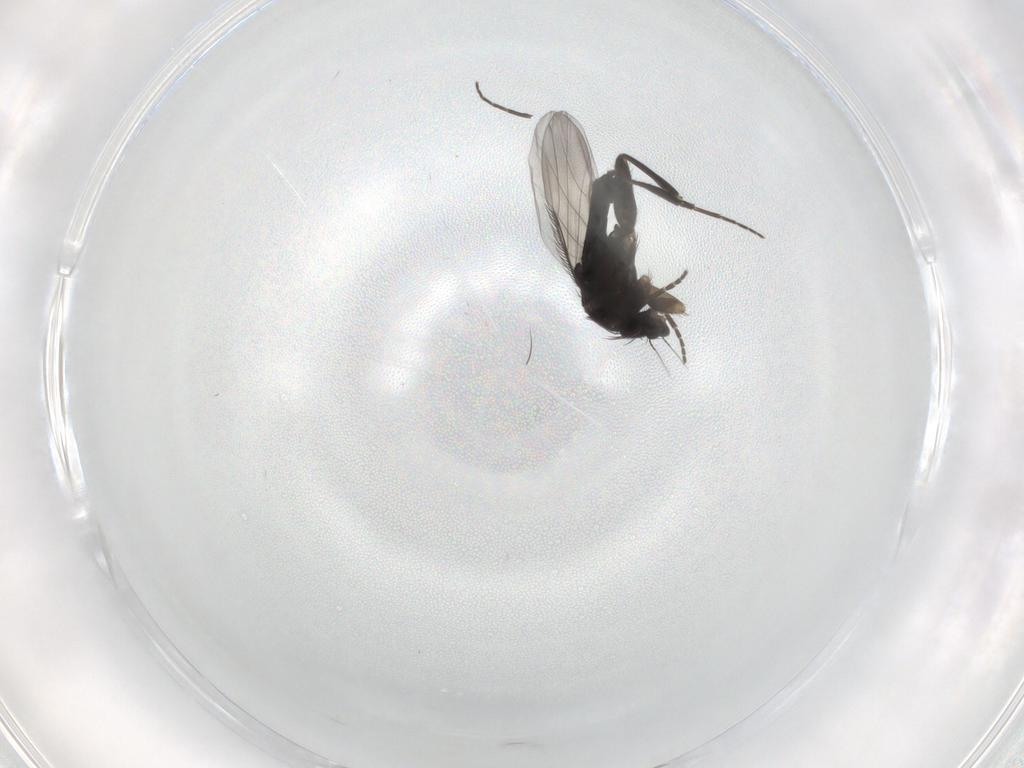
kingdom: Animalia
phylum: Arthropoda
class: Insecta
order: Diptera
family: Phoridae
